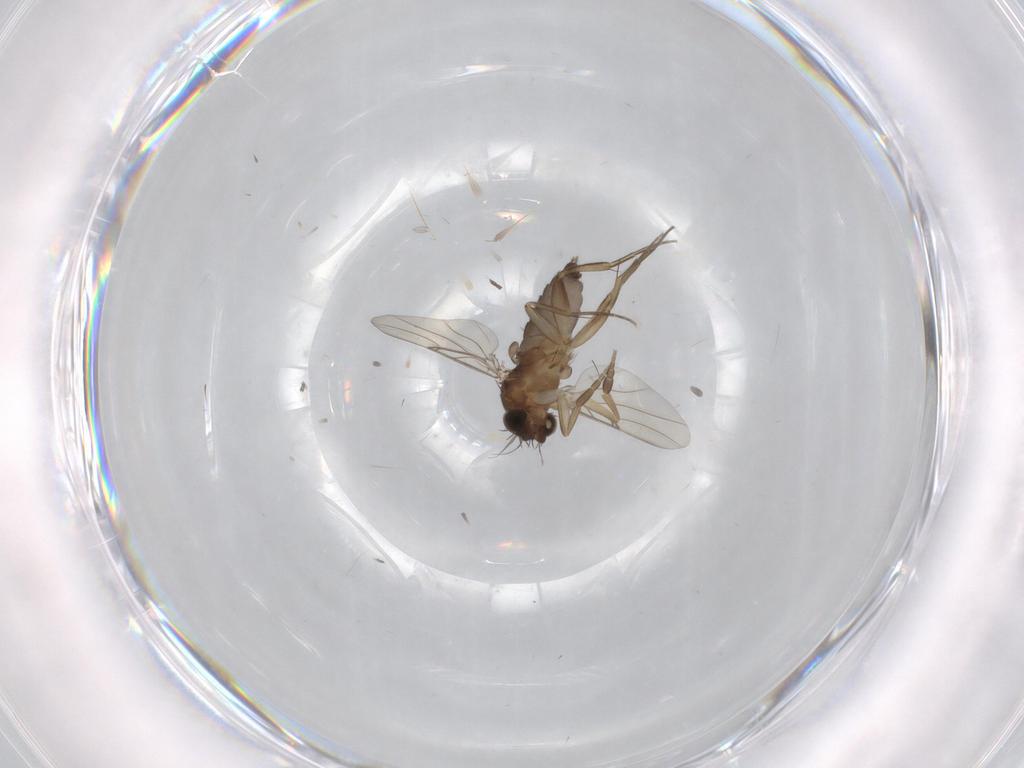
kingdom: Animalia
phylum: Arthropoda
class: Insecta
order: Diptera
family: Phoridae
